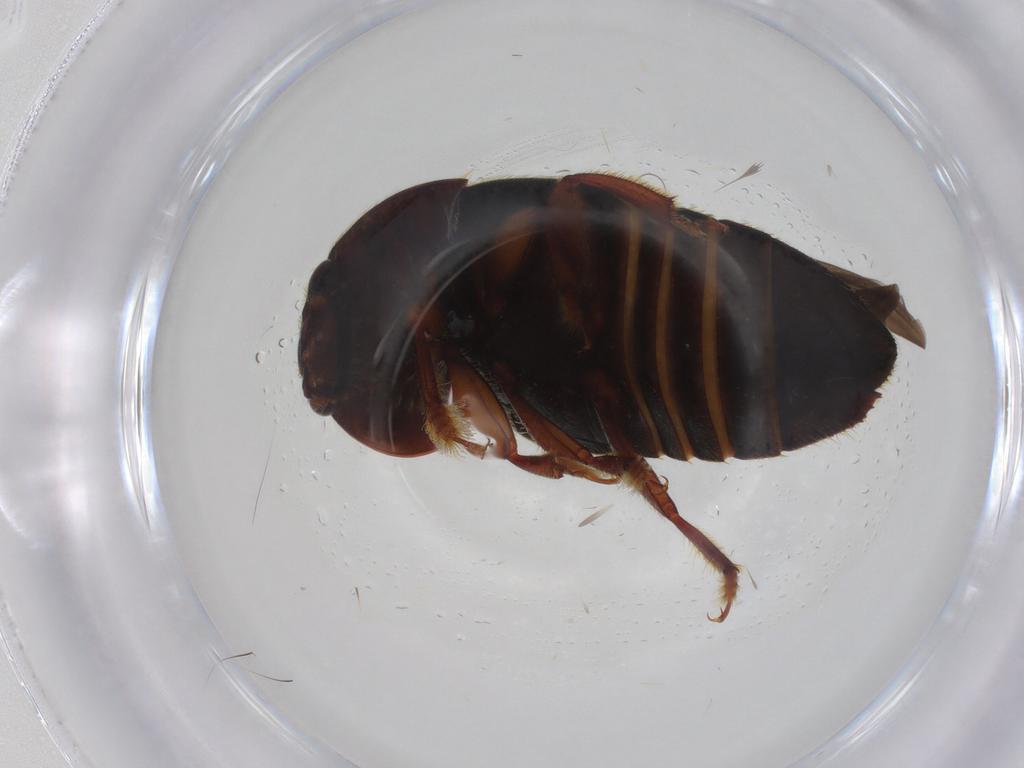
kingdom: Animalia
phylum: Arthropoda
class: Insecta
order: Coleoptera
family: Nitidulidae
